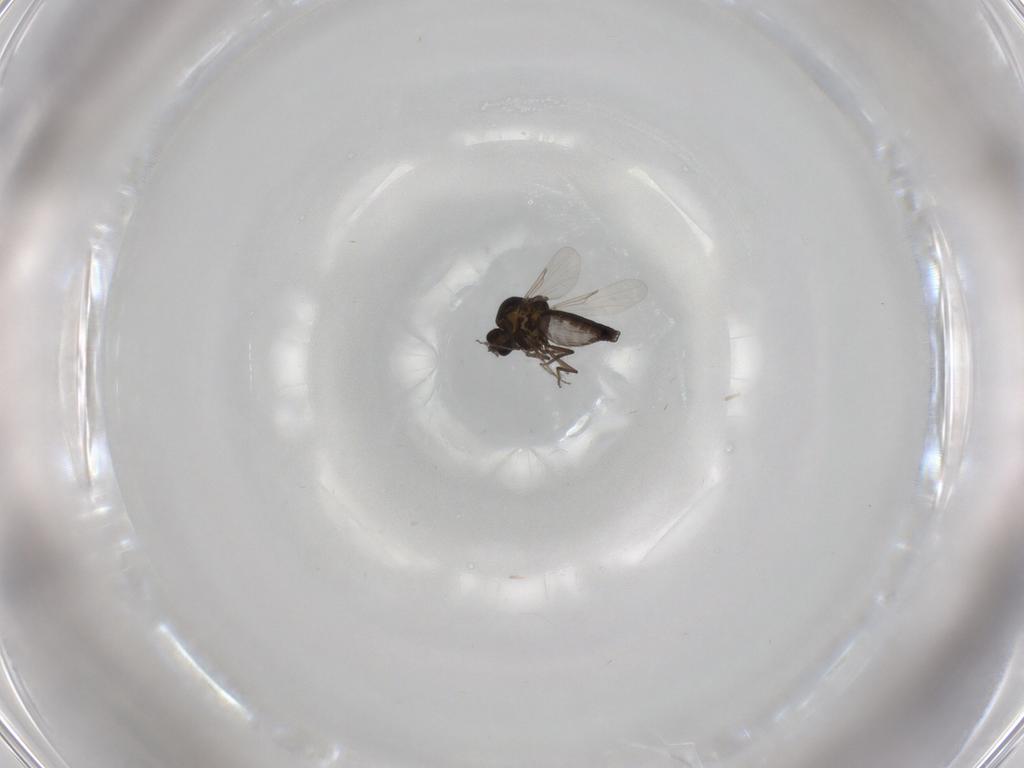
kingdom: Animalia
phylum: Arthropoda
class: Insecta
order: Diptera
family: Ceratopogonidae
